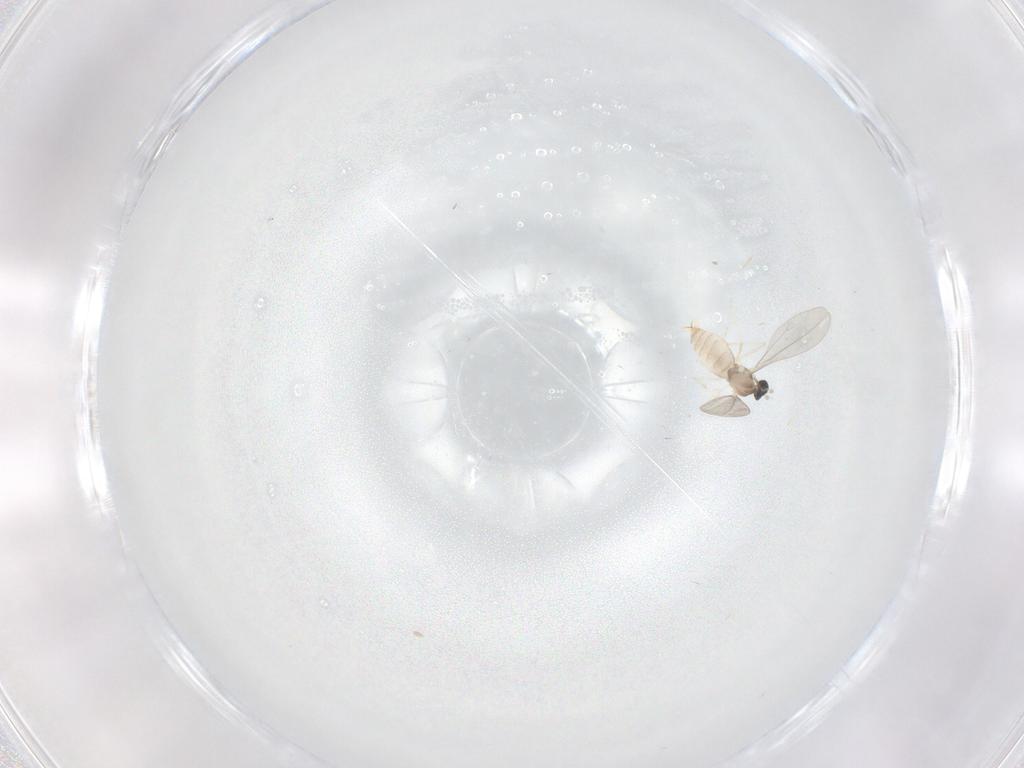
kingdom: Animalia
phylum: Arthropoda
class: Insecta
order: Diptera
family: Cecidomyiidae
